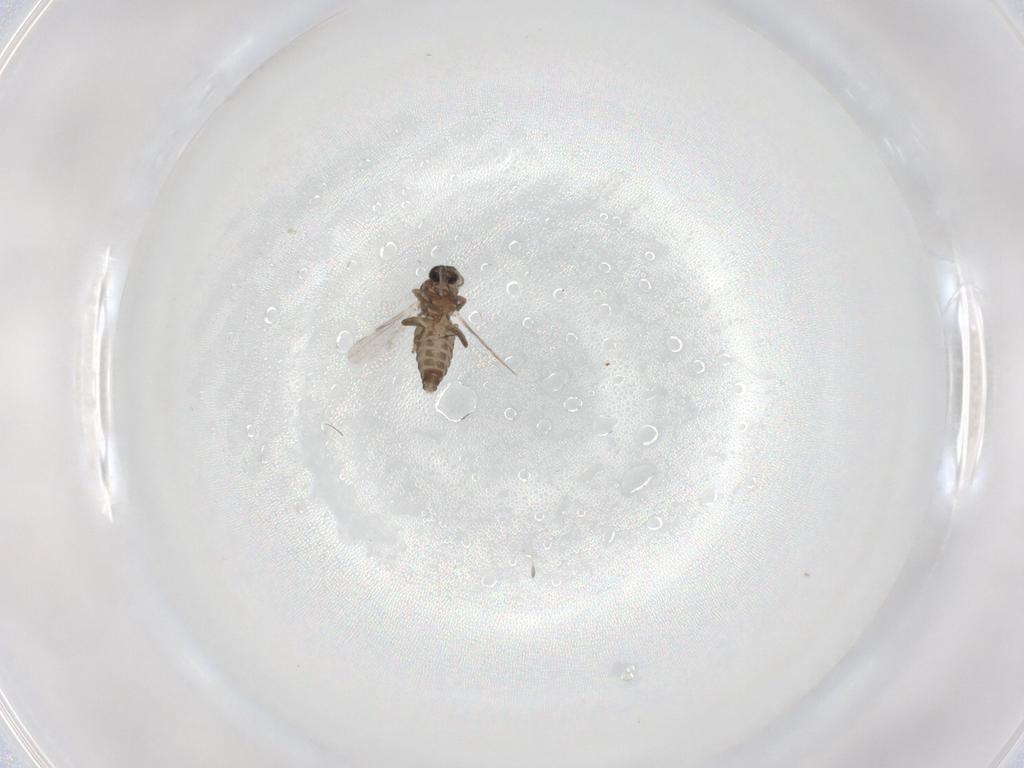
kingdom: Animalia
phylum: Arthropoda
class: Insecta
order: Diptera
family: Ceratopogonidae
